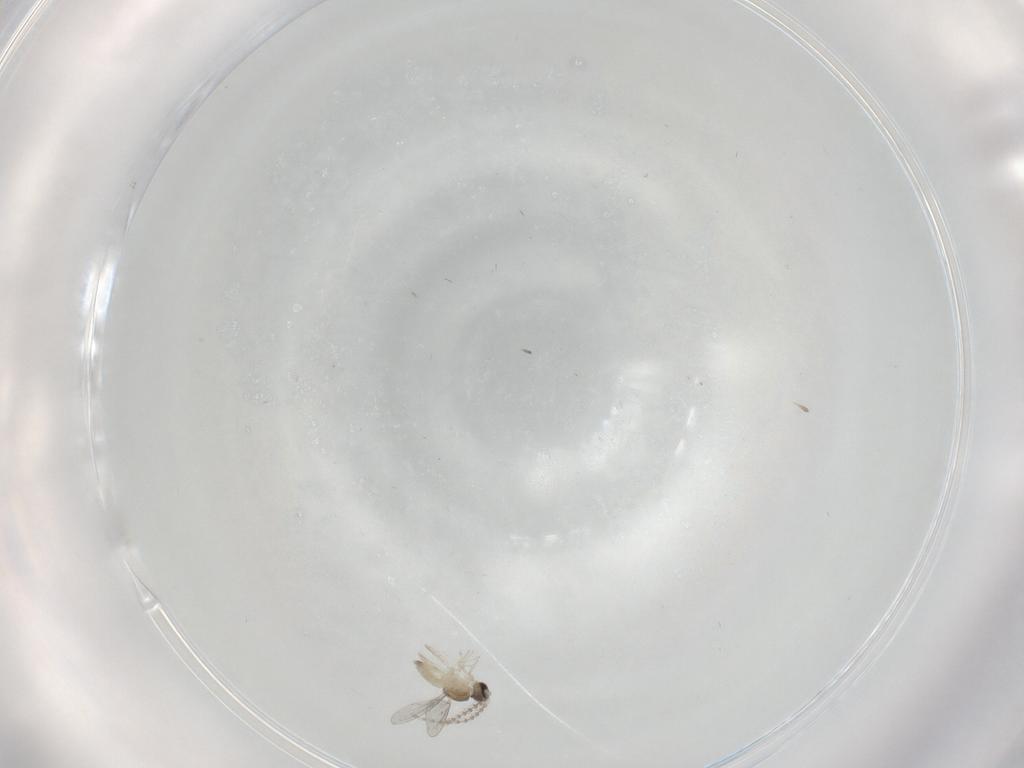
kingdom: Animalia
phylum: Arthropoda
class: Insecta
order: Diptera
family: Cecidomyiidae
